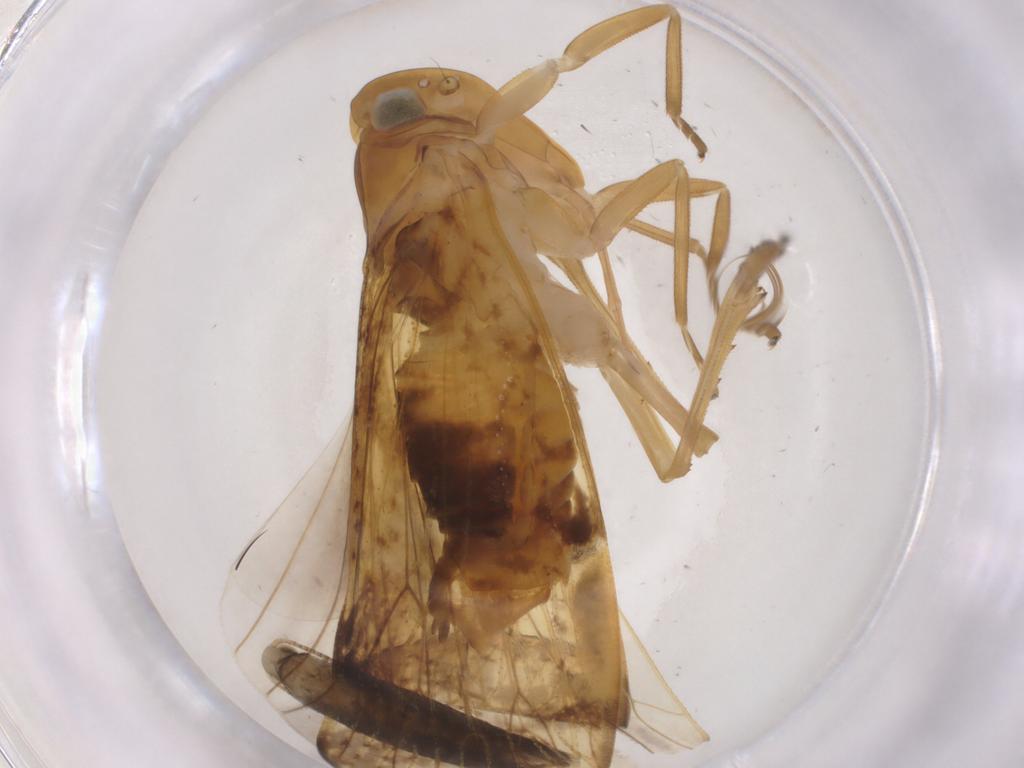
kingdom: Animalia
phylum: Arthropoda
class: Insecta
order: Hemiptera
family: Cixiidae
